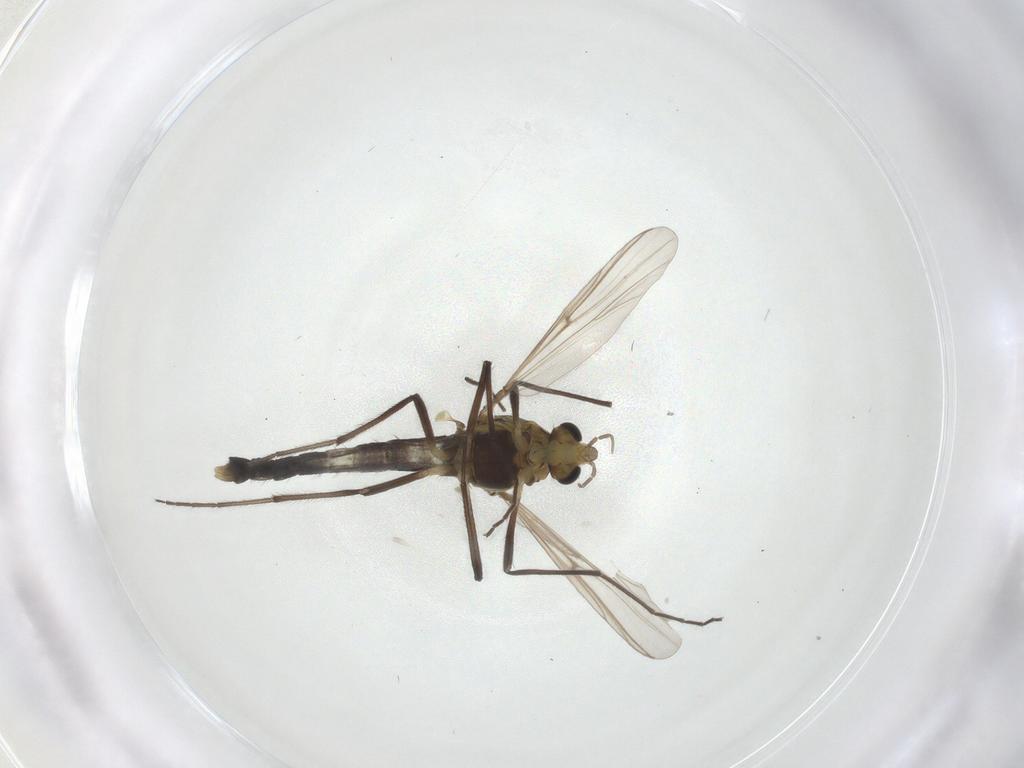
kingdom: Animalia
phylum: Arthropoda
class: Insecta
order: Diptera
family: Chironomidae
